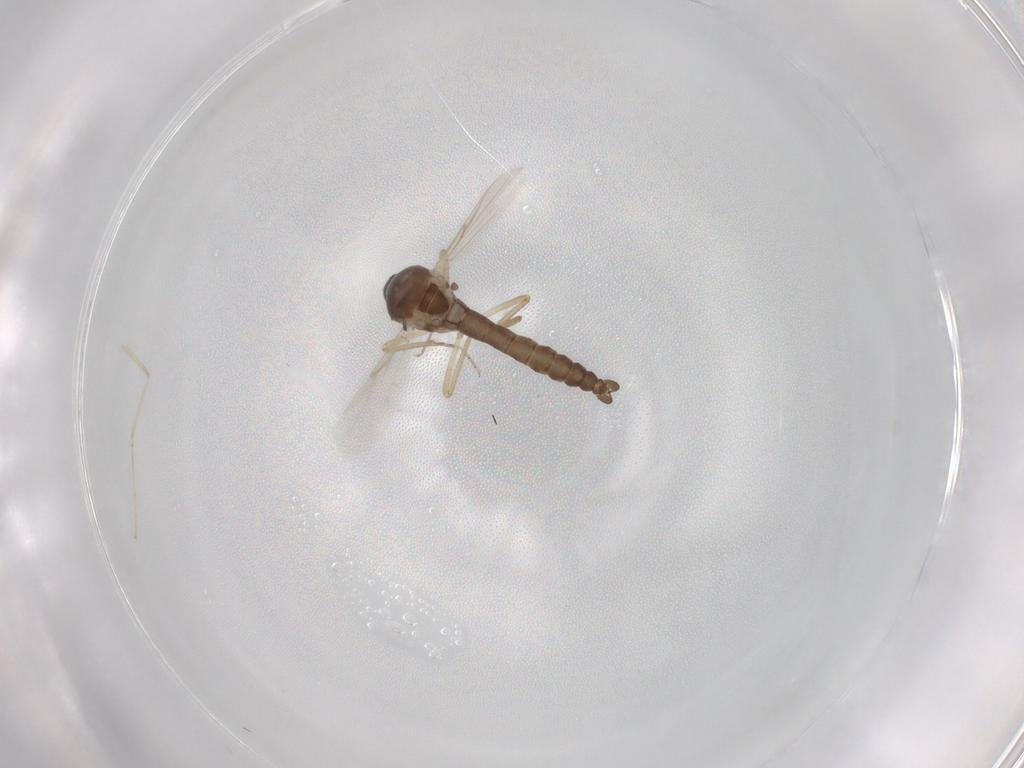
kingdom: Animalia
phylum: Arthropoda
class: Insecta
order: Diptera
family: Ceratopogonidae
